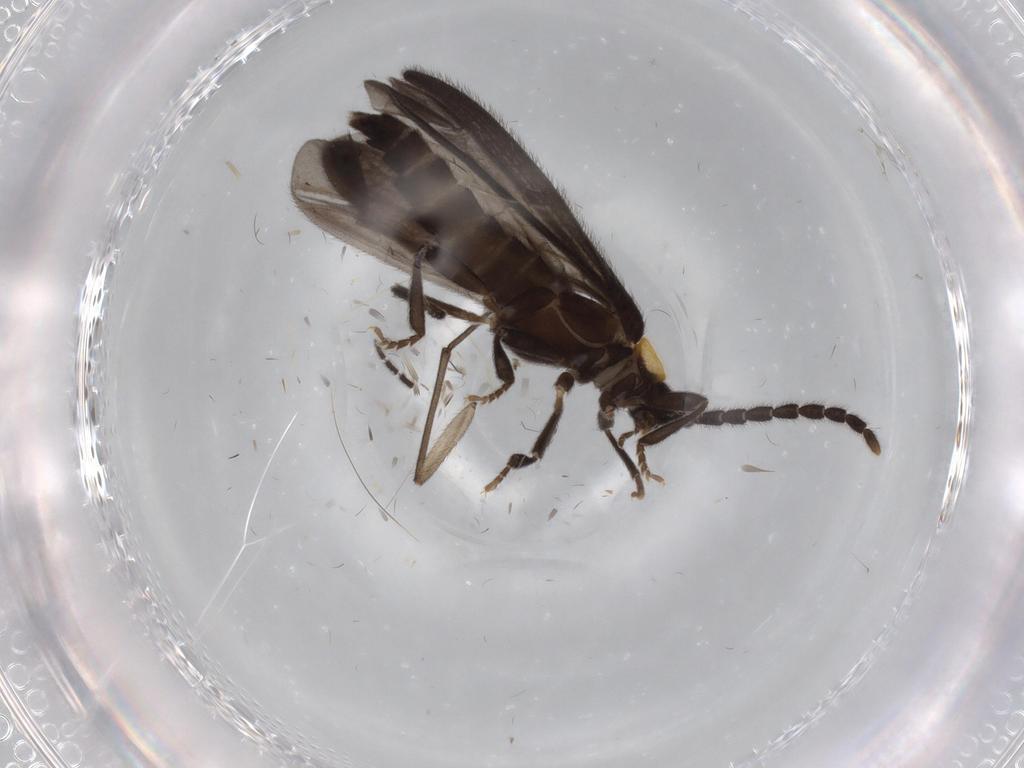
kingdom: Animalia
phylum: Arthropoda
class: Insecta
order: Coleoptera
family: Lycidae
